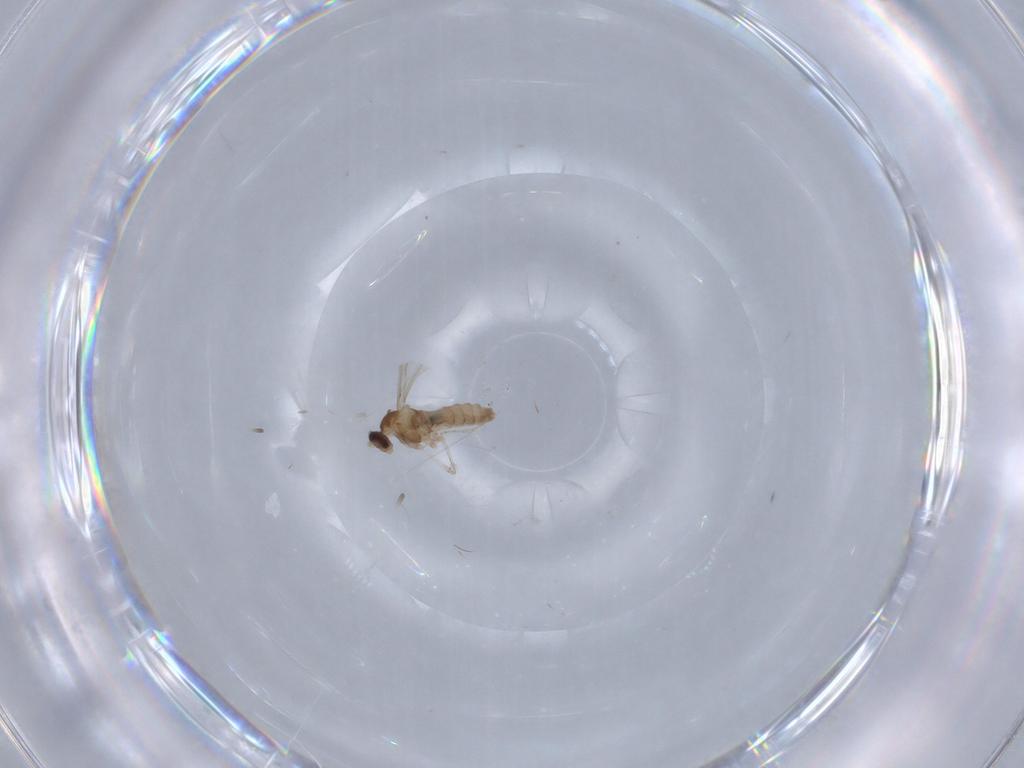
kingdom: Animalia
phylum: Arthropoda
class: Insecta
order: Diptera
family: Cecidomyiidae
